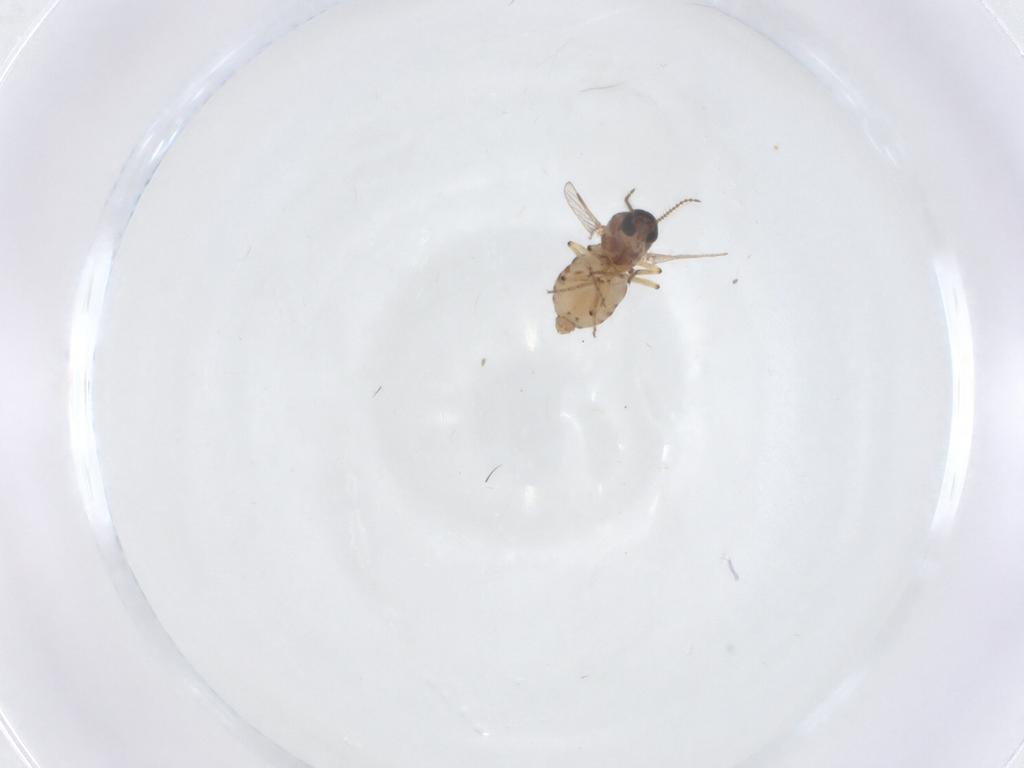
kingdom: Animalia
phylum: Arthropoda
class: Insecta
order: Diptera
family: Ceratopogonidae
